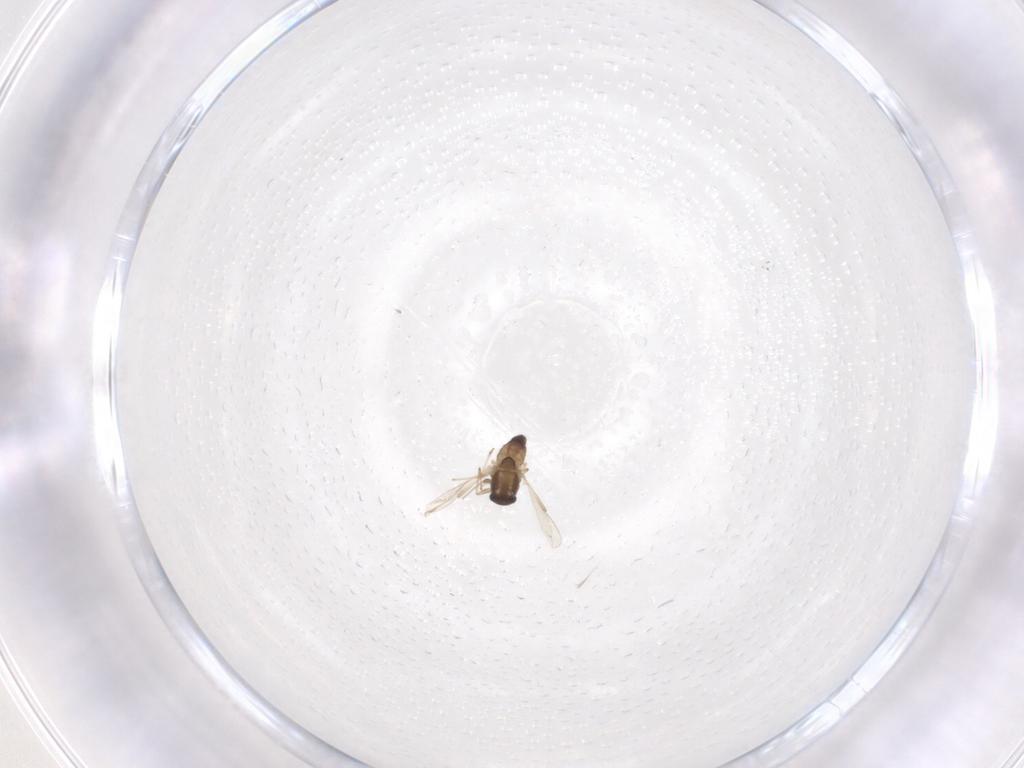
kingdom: Animalia
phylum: Arthropoda
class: Insecta
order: Diptera
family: Chironomidae
